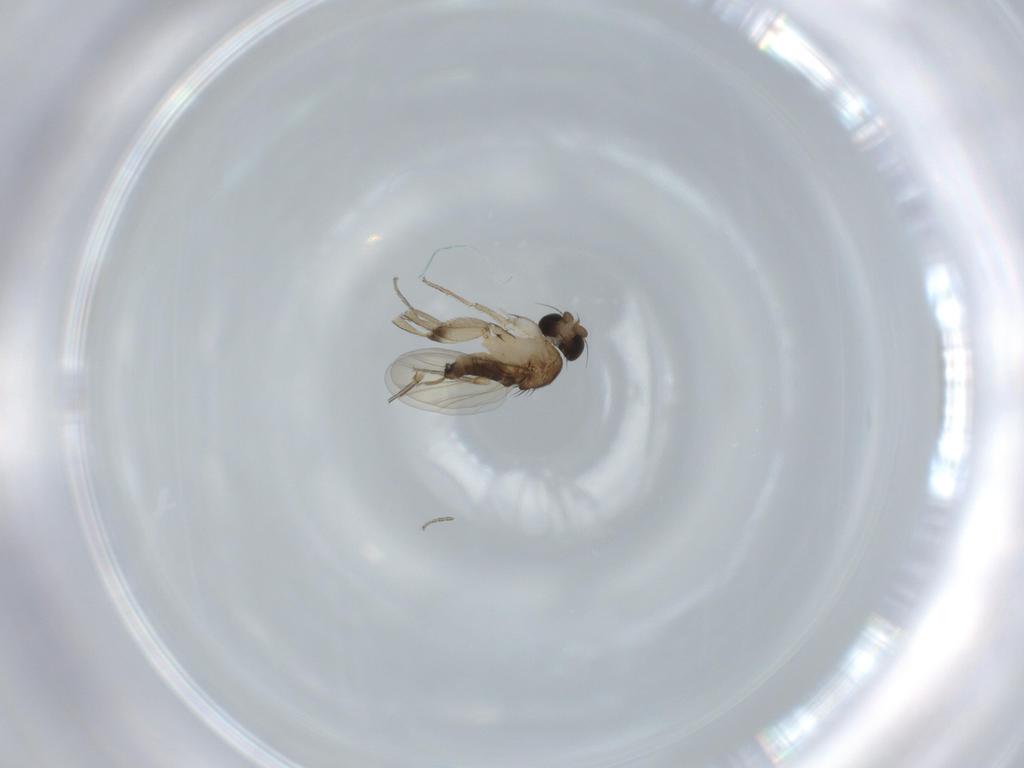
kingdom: Animalia
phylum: Arthropoda
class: Insecta
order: Diptera
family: Phoridae
